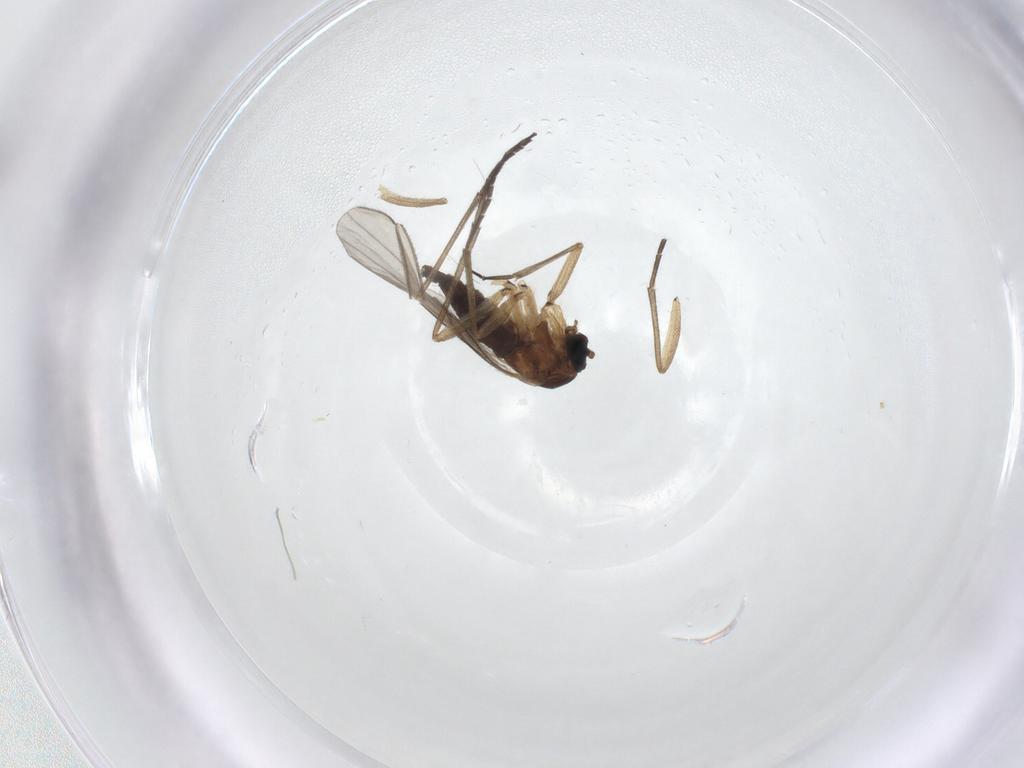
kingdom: Animalia
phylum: Arthropoda
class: Insecta
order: Diptera
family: Sciaridae
